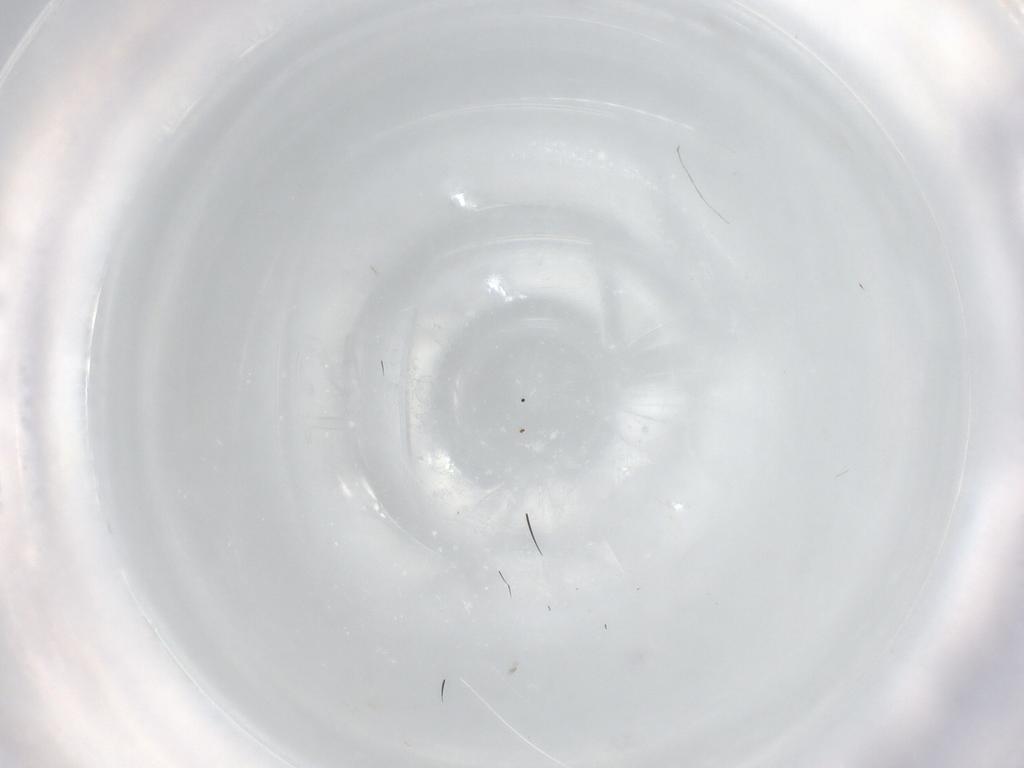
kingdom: Animalia
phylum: Arthropoda
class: Insecta
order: Diptera
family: Ceratopogonidae
